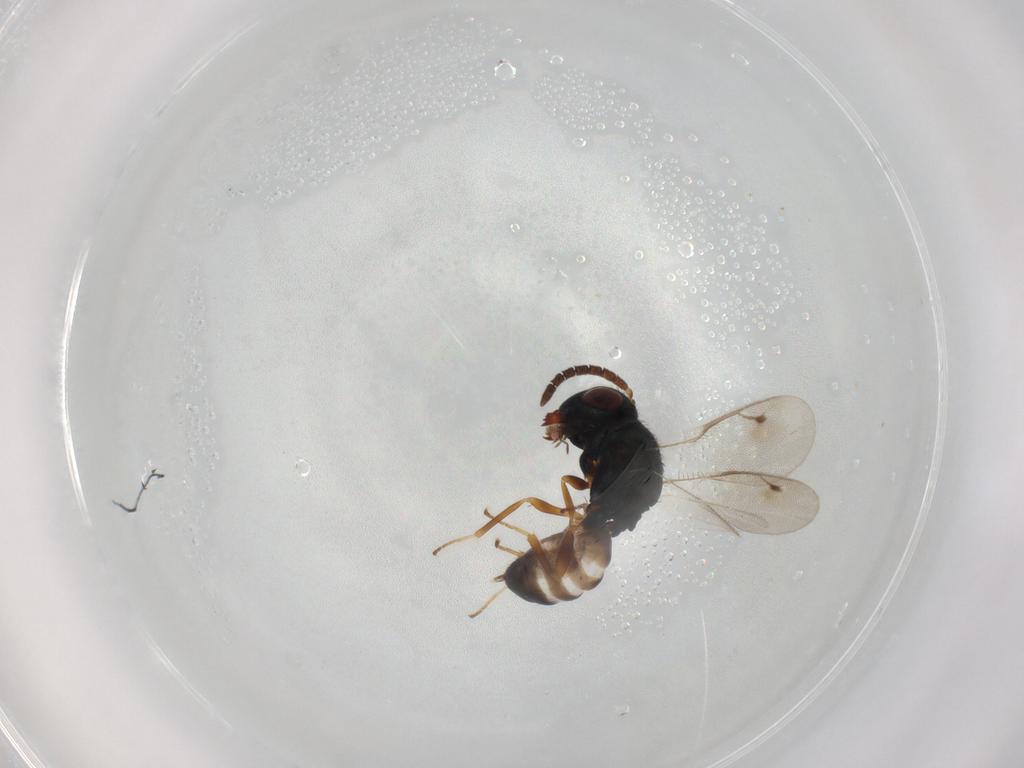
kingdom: Animalia
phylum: Arthropoda
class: Insecta
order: Hymenoptera
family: Pteromalidae
